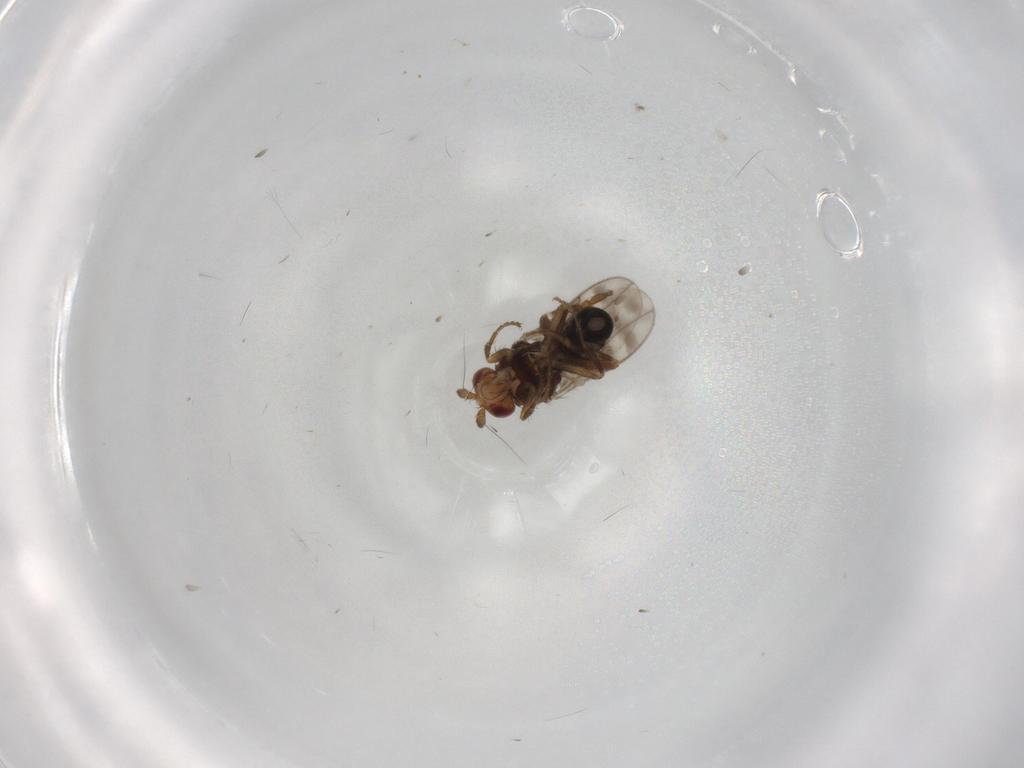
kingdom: Animalia
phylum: Arthropoda
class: Insecta
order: Diptera
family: Sphaeroceridae
